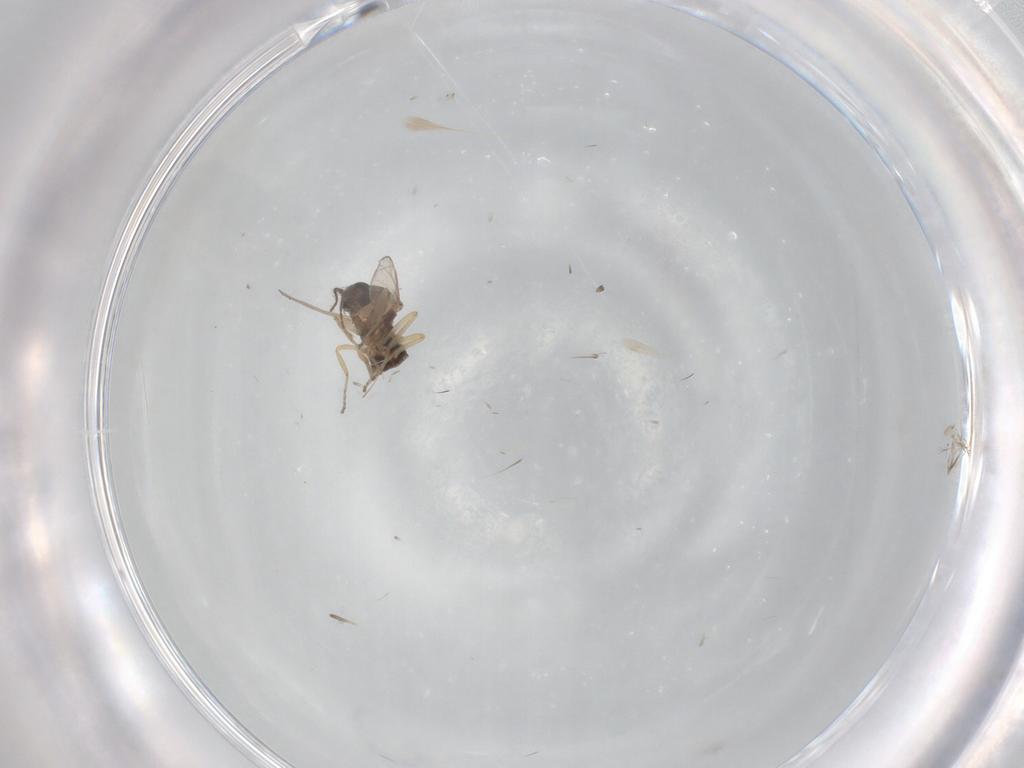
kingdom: Animalia
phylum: Arthropoda
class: Insecta
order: Diptera
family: Ceratopogonidae
